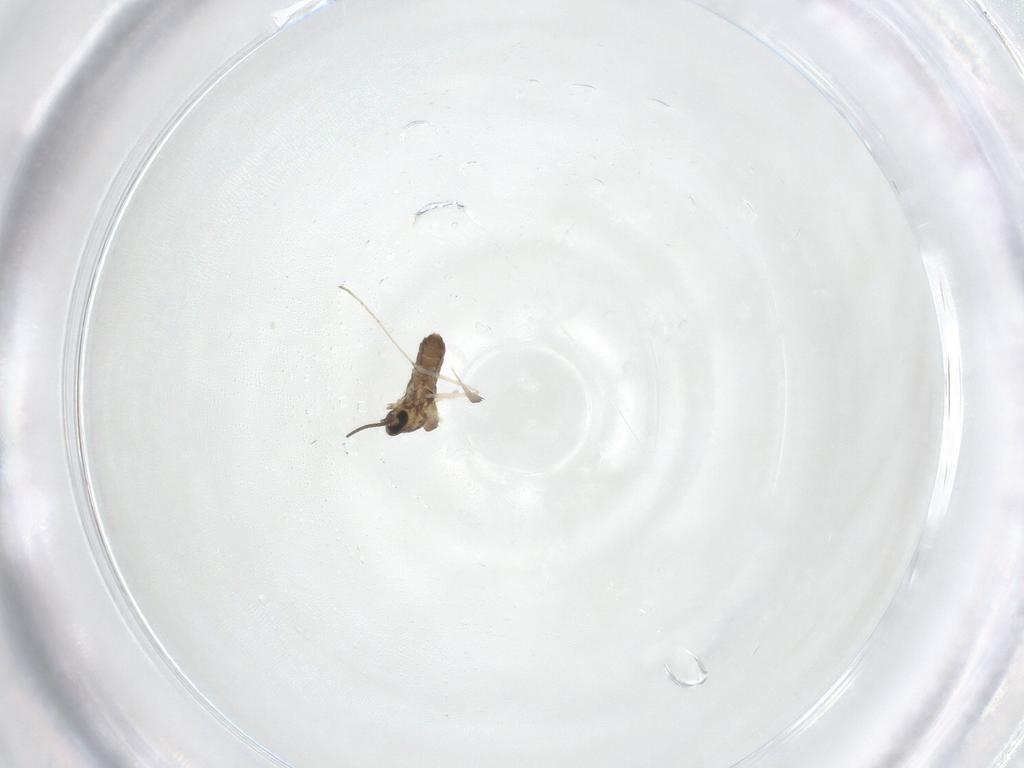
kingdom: Animalia
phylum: Arthropoda
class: Insecta
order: Diptera
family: Cecidomyiidae
